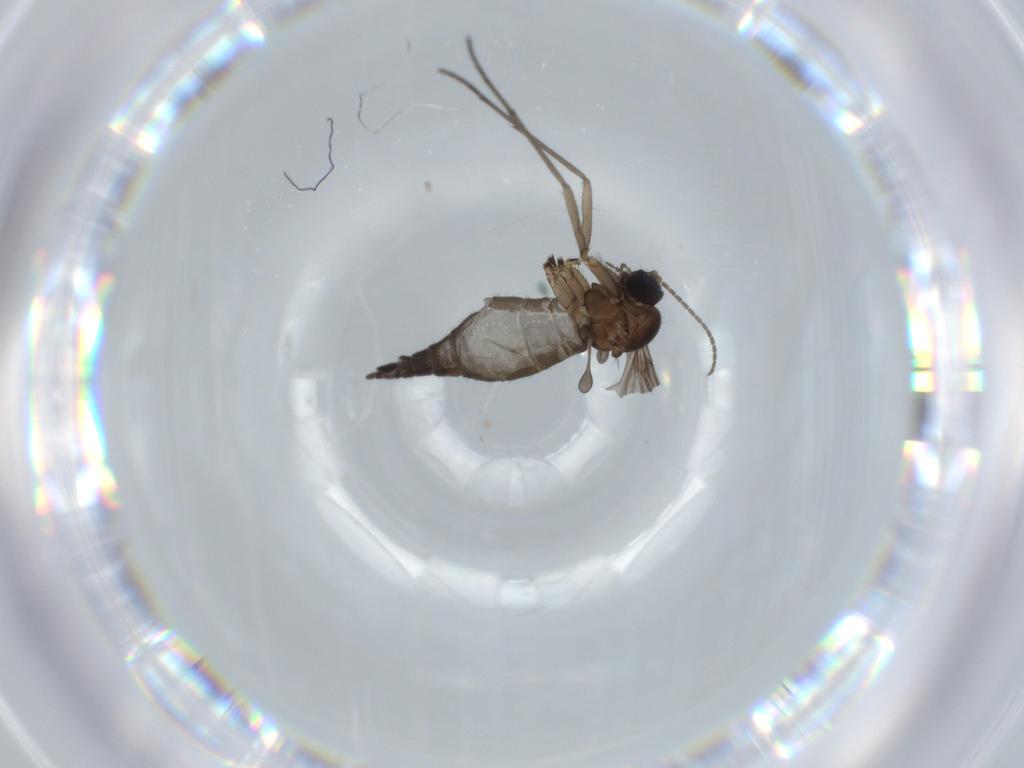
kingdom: Animalia
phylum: Arthropoda
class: Insecta
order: Diptera
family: Sciaridae
